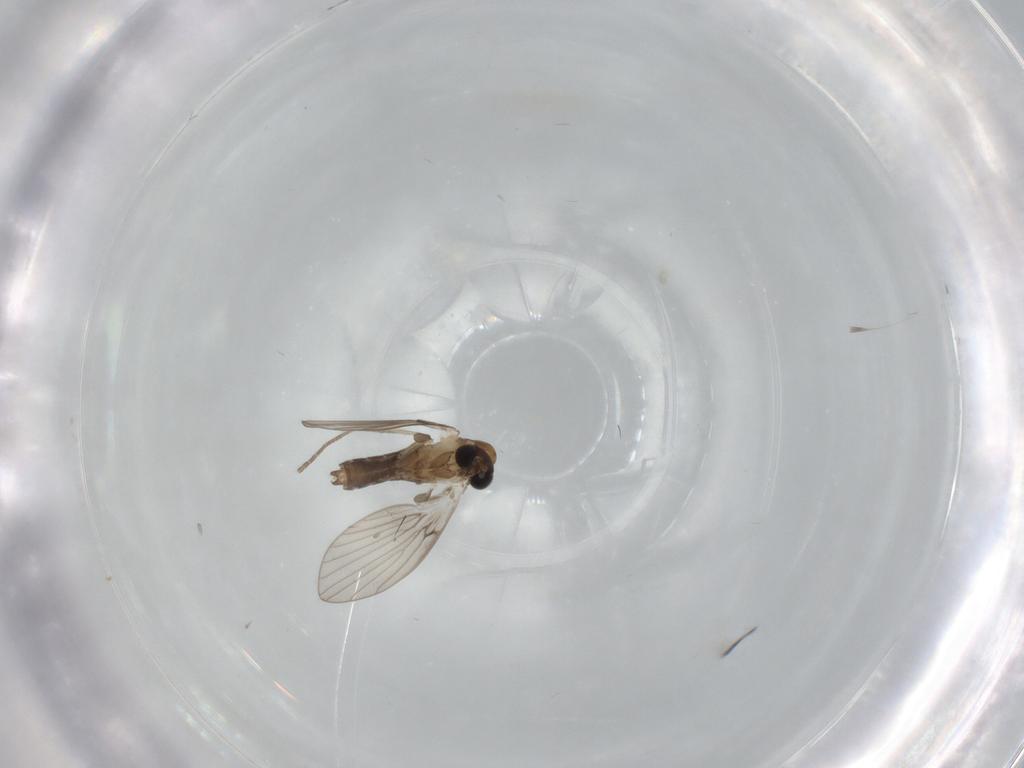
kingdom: Animalia
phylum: Arthropoda
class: Insecta
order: Diptera
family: Psychodidae
